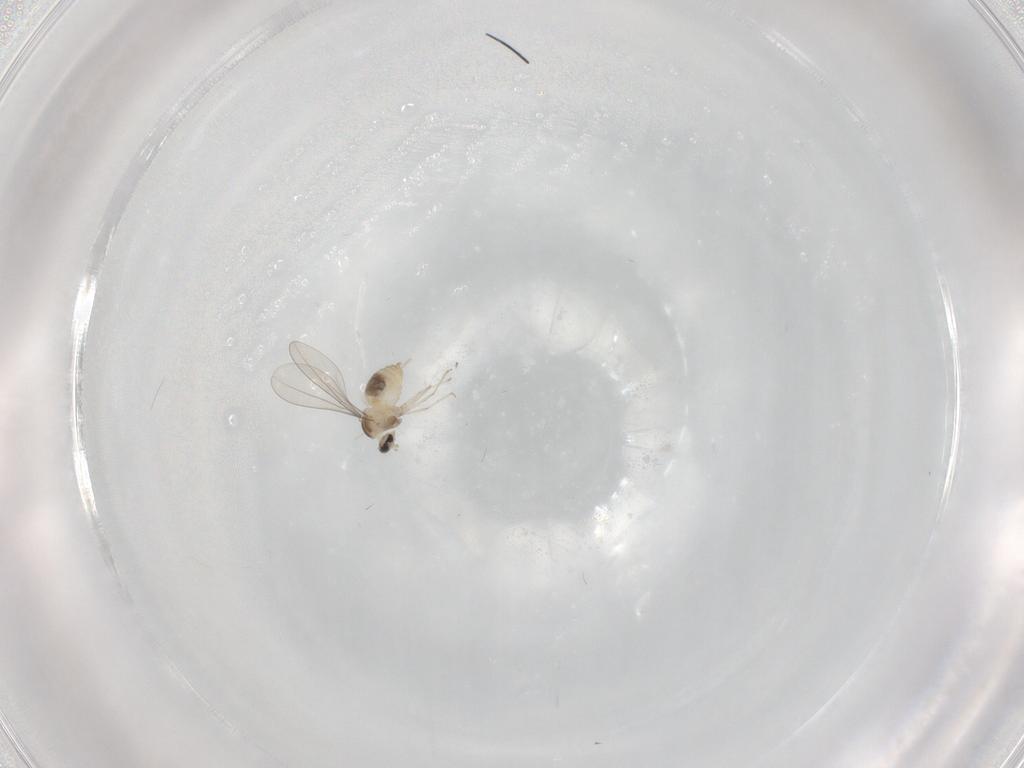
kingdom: Animalia
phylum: Arthropoda
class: Insecta
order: Diptera
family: Cecidomyiidae
